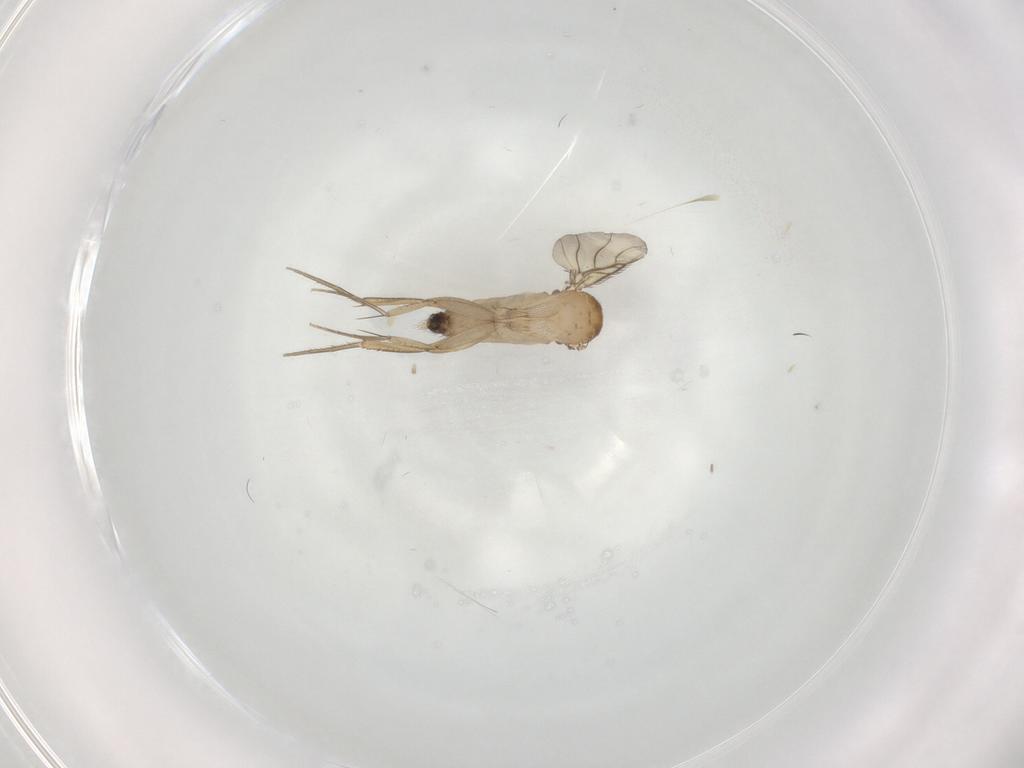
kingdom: Animalia
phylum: Arthropoda
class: Insecta
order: Diptera
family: Phoridae
